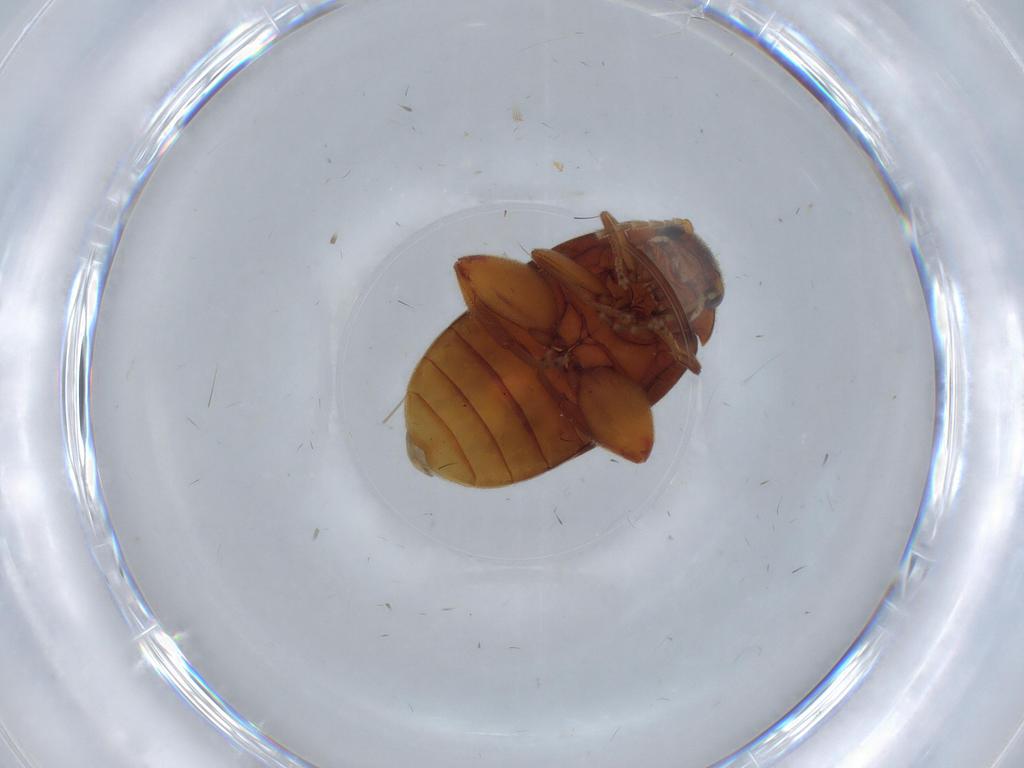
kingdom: Animalia
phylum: Arthropoda
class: Insecta
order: Coleoptera
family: Scirtidae
